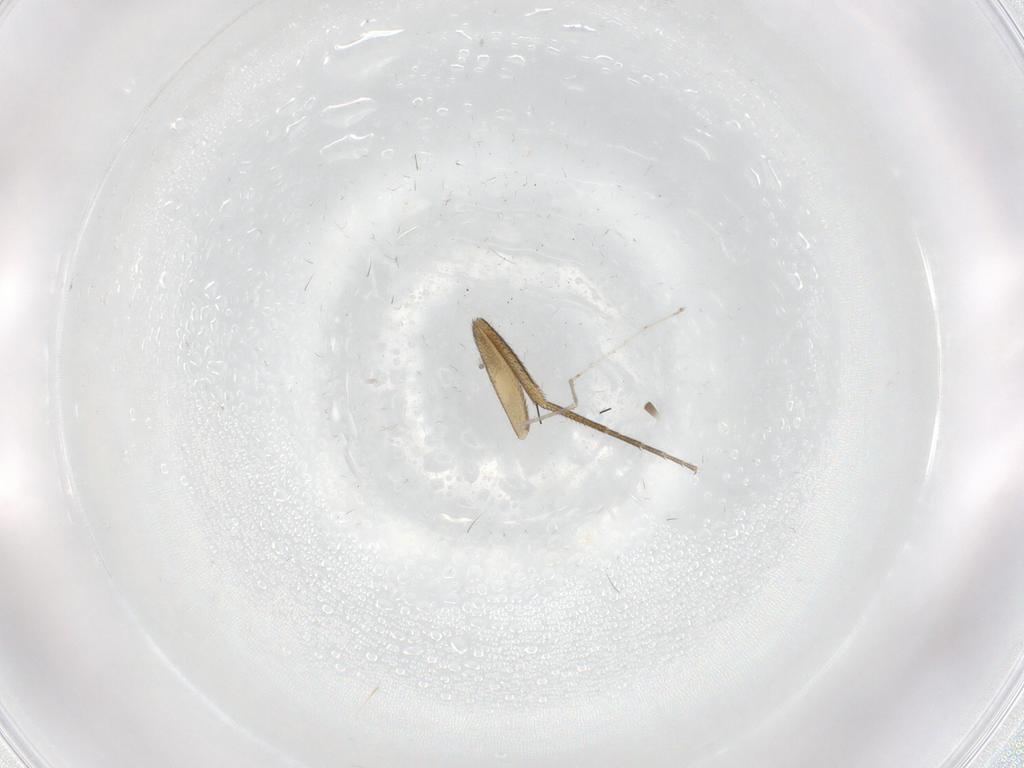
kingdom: Animalia
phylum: Arthropoda
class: Insecta
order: Diptera
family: Phoridae
